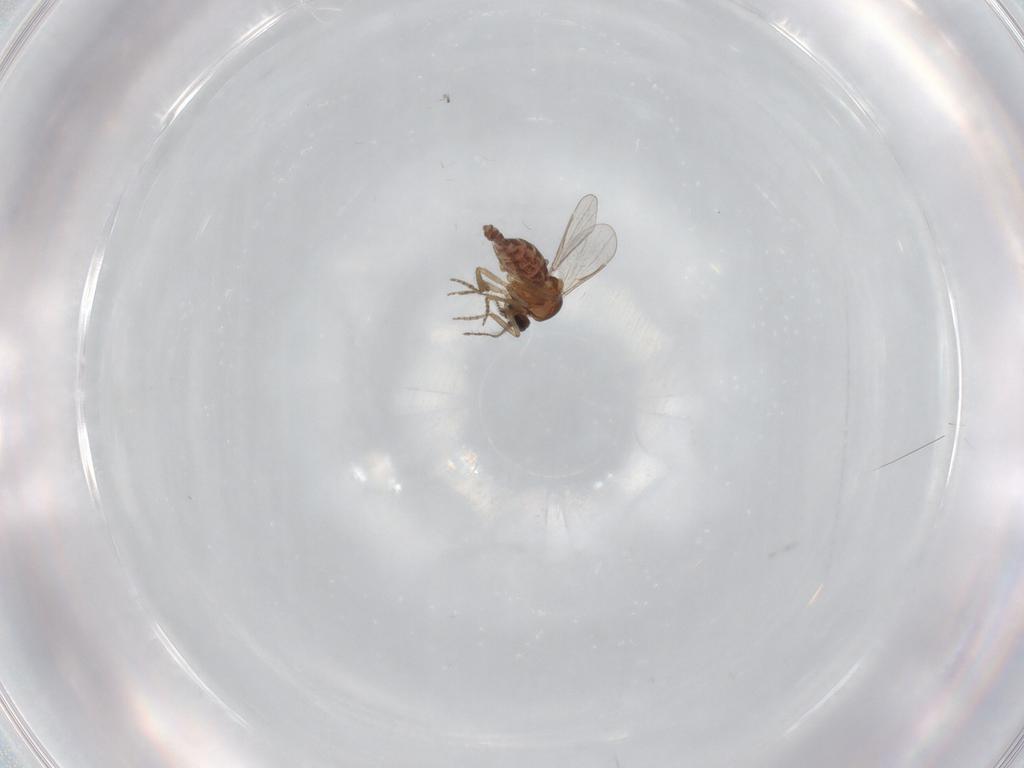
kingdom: Animalia
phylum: Arthropoda
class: Insecta
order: Diptera
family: Ceratopogonidae
